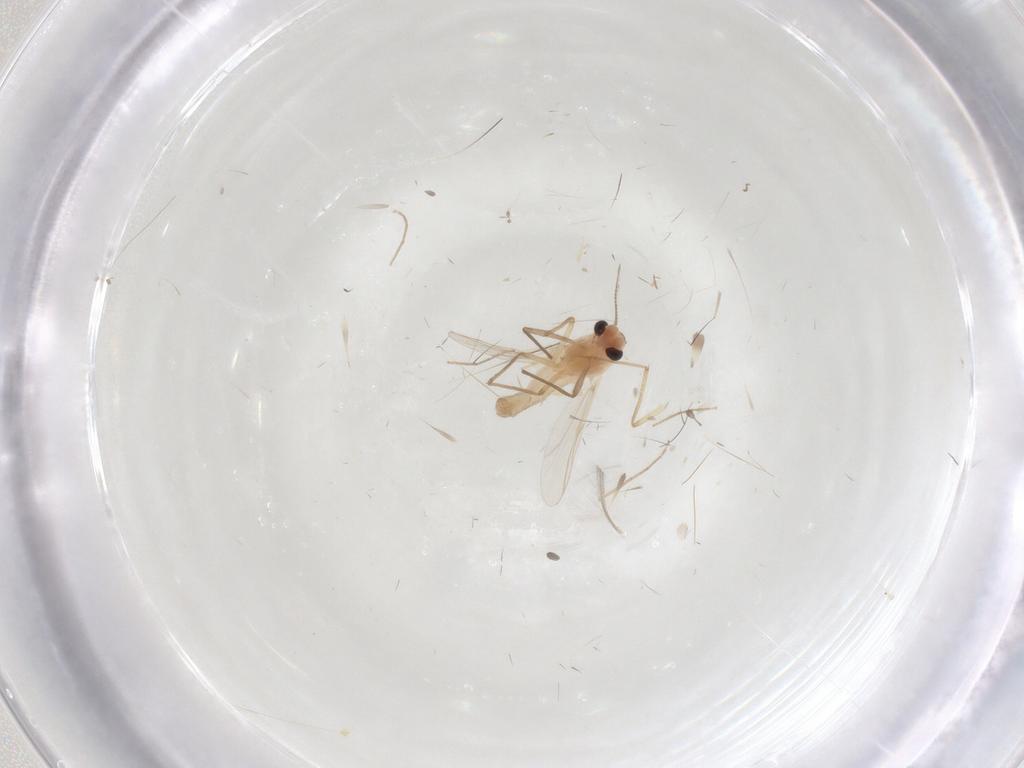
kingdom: Animalia
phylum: Arthropoda
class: Insecta
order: Diptera
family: Chironomidae
